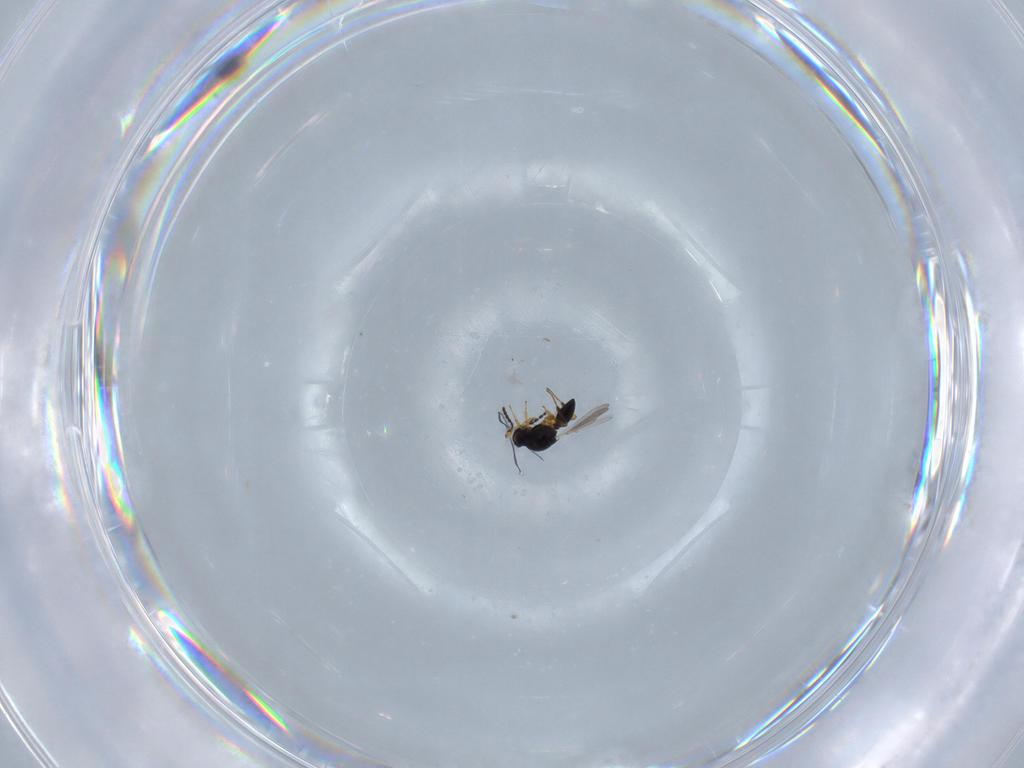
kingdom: Animalia
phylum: Arthropoda
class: Insecta
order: Hymenoptera
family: Platygastridae
